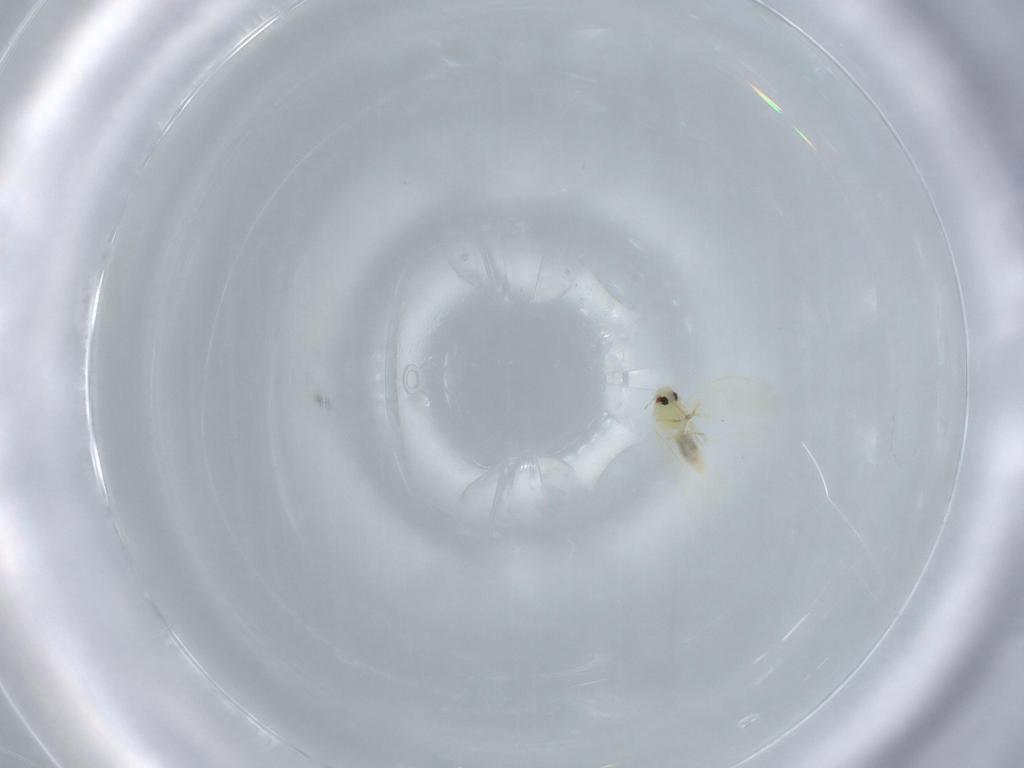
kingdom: Animalia
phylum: Arthropoda
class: Insecta
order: Hemiptera
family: Aleyrodidae
